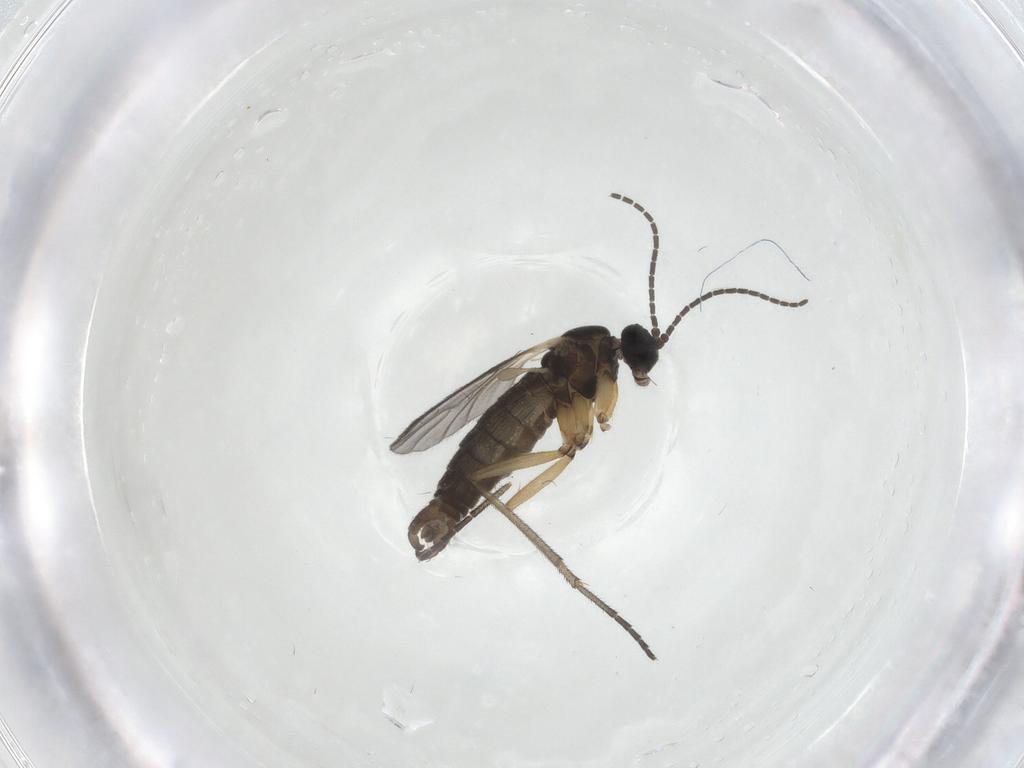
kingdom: Animalia
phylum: Arthropoda
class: Insecta
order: Diptera
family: Sciaridae
